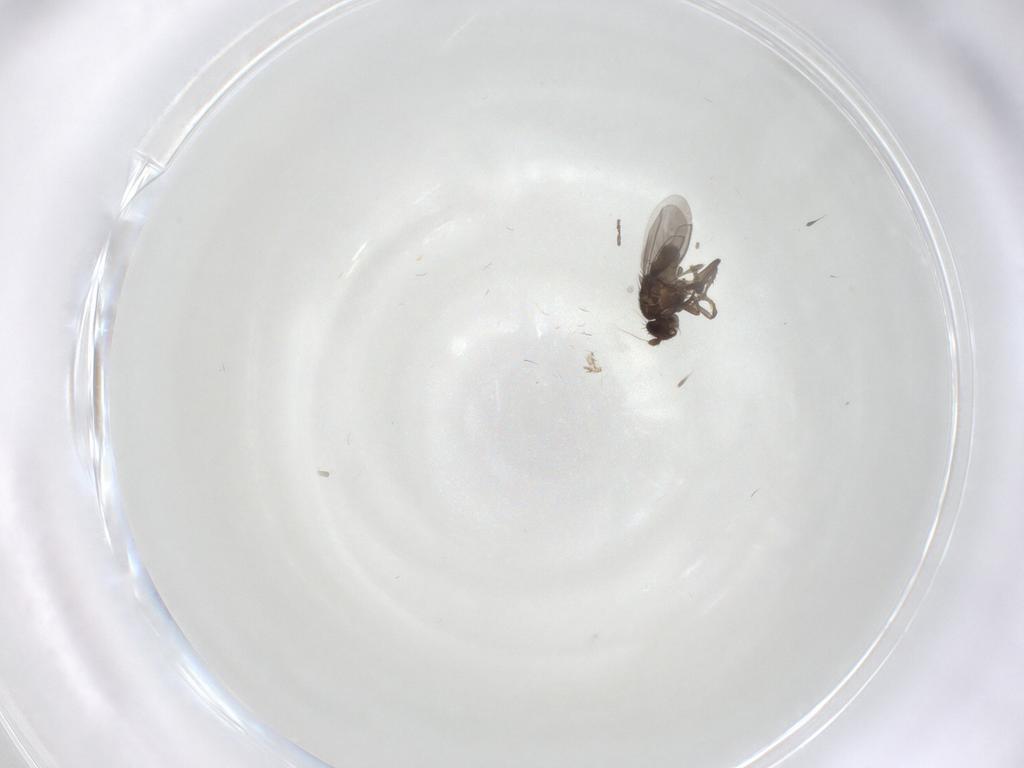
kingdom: Animalia
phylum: Arthropoda
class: Insecta
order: Diptera
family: Sphaeroceridae
